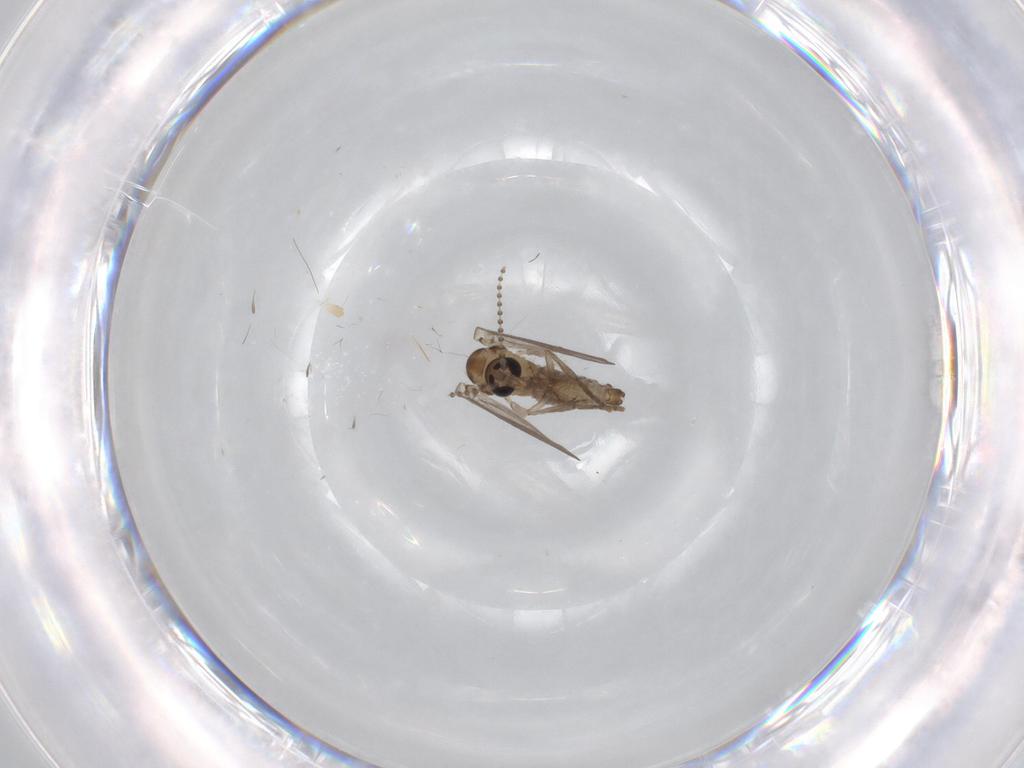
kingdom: Animalia
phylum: Arthropoda
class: Insecta
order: Diptera
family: Psychodidae
